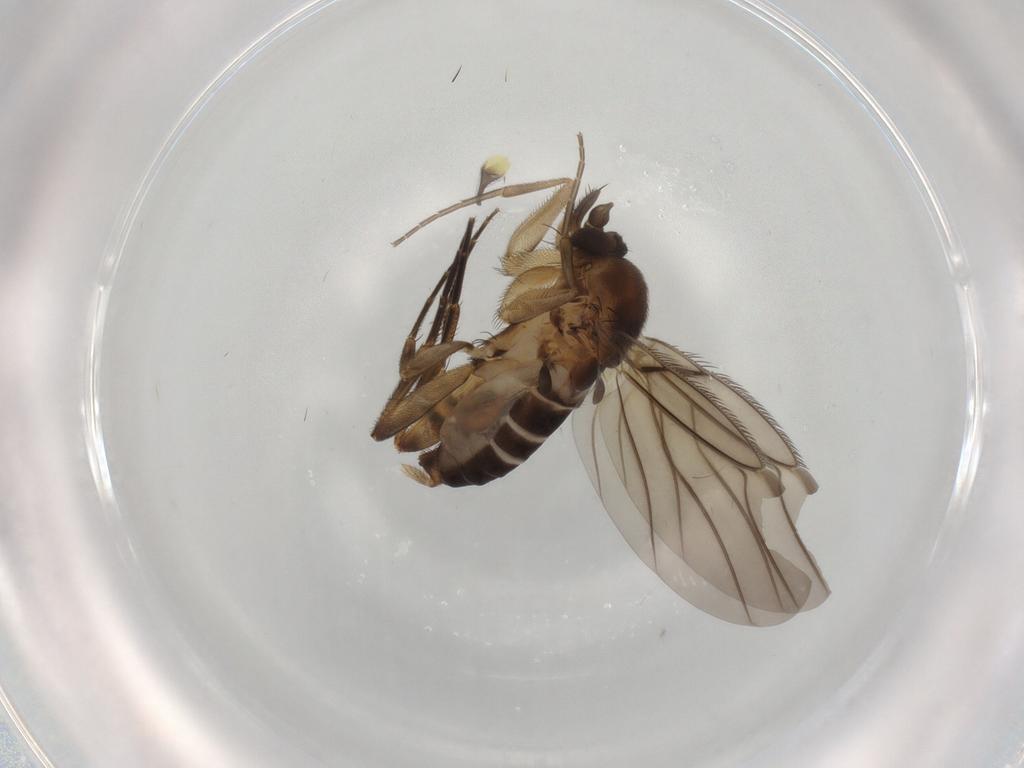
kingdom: Animalia
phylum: Arthropoda
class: Insecta
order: Diptera
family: Limoniidae
